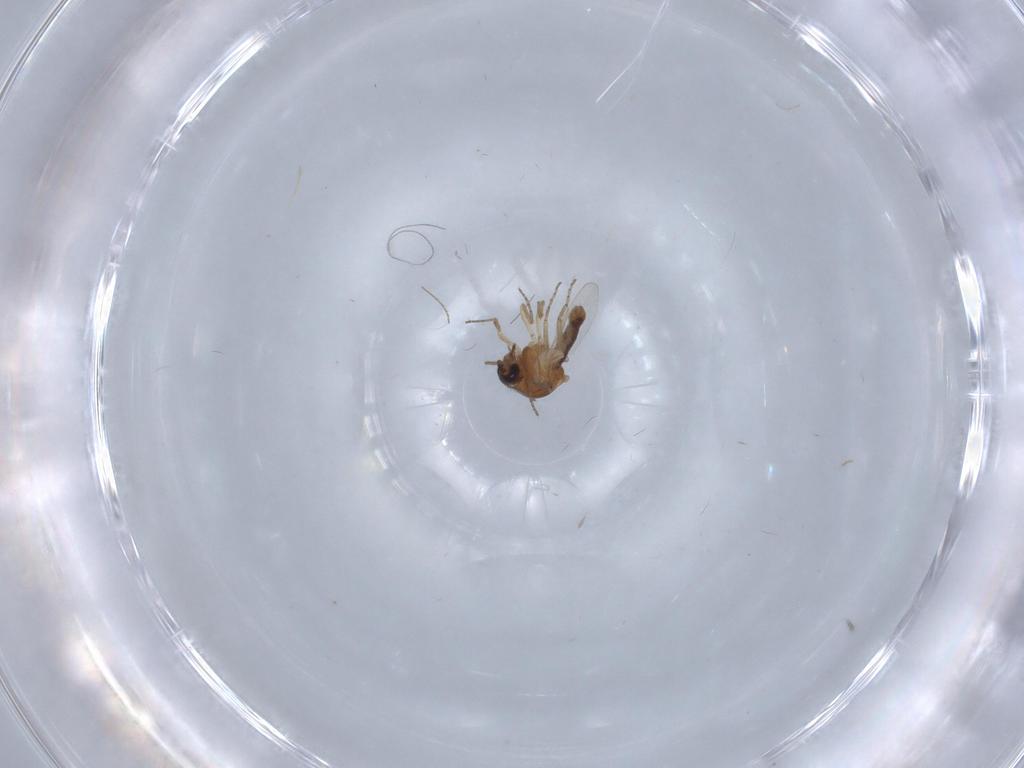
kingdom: Animalia
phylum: Arthropoda
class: Insecta
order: Diptera
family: Ceratopogonidae
